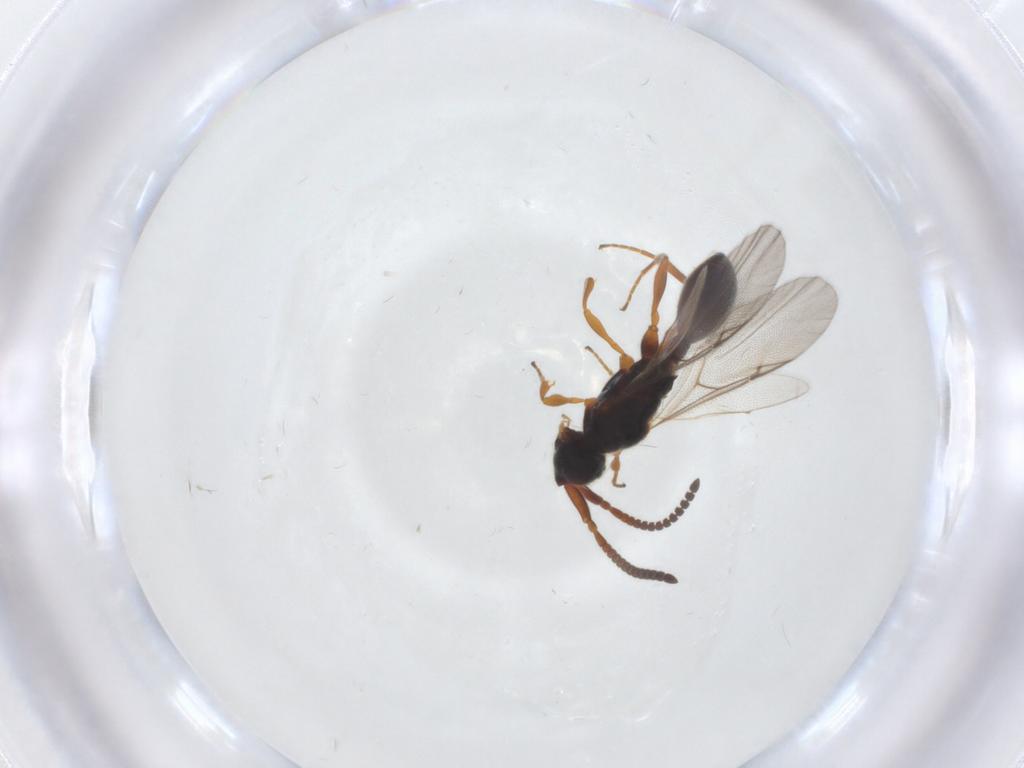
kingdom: Animalia
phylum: Arthropoda
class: Insecta
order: Hymenoptera
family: Diapriidae
